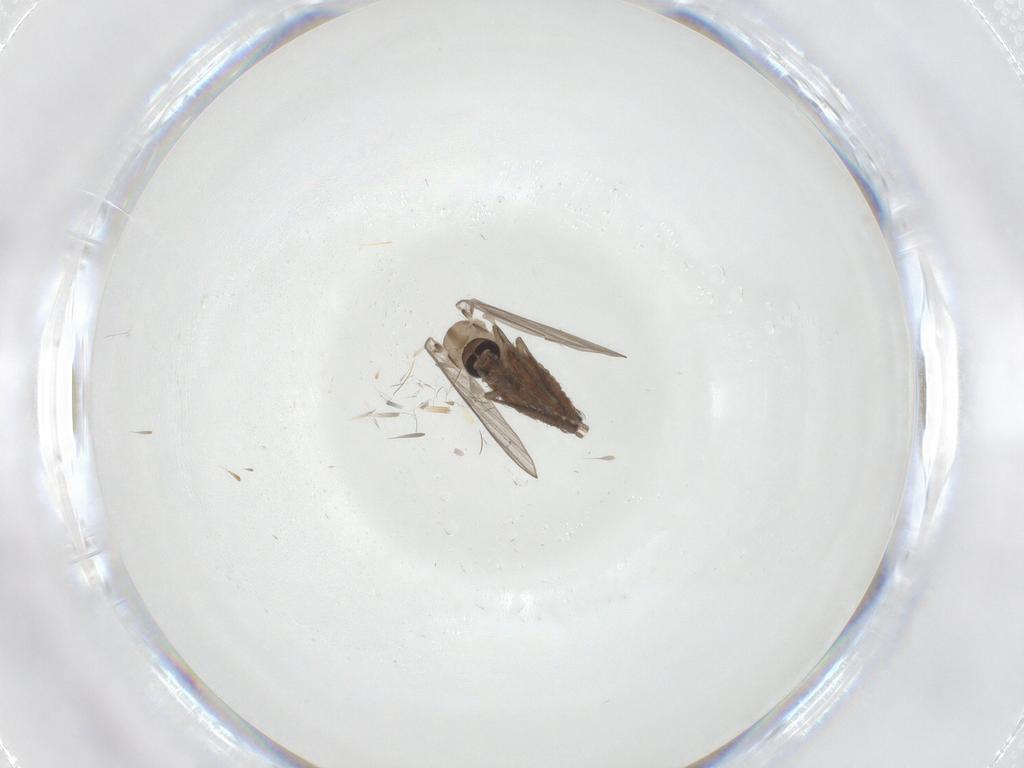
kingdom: Animalia
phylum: Arthropoda
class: Insecta
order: Diptera
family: Psychodidae
